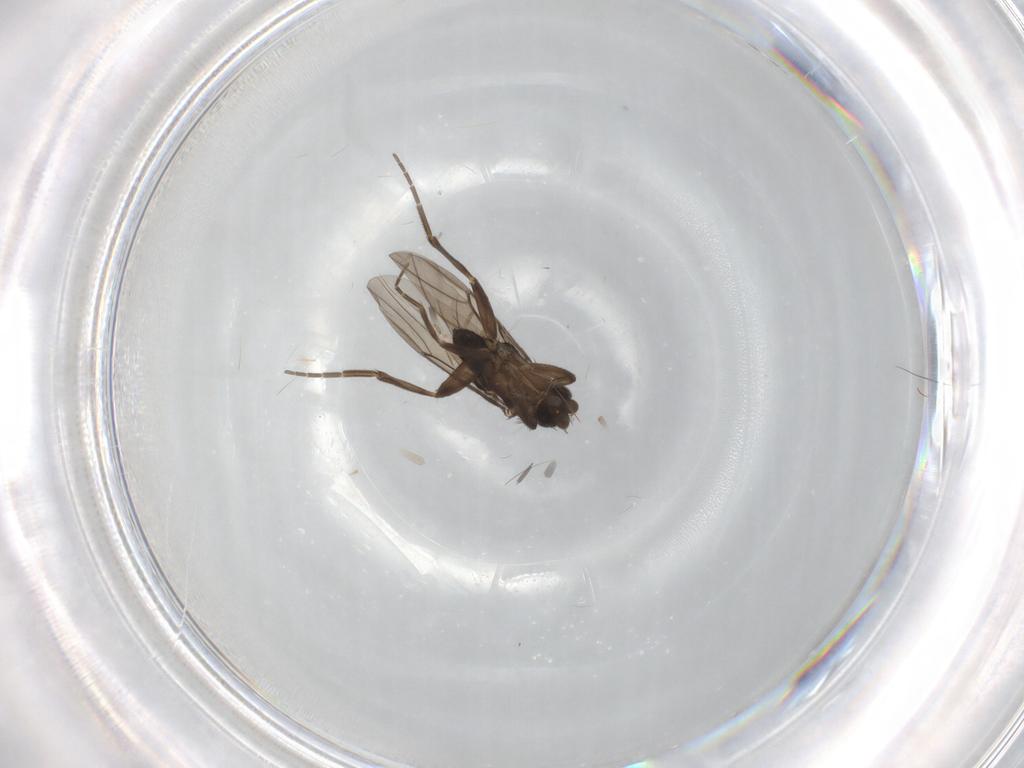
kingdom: Animalia
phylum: Arthropoda
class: Insecta
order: Diptera
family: Phoridae
